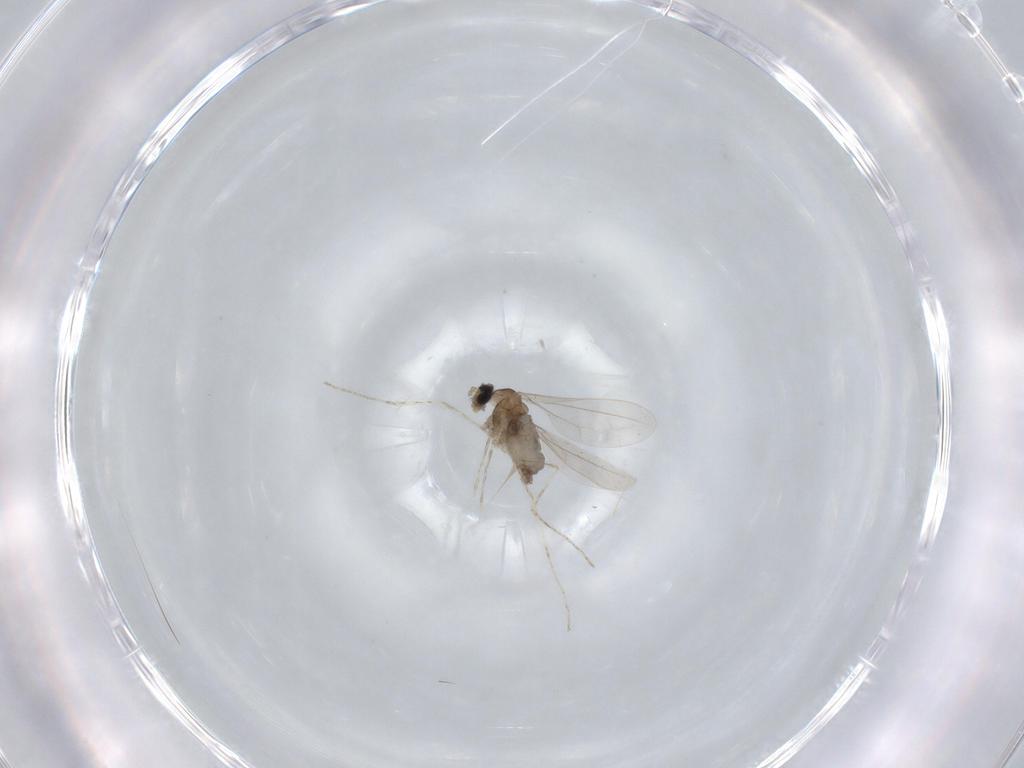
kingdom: Animalia
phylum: Arthropoda
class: Insecta
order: Diptera
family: Cecidomyiidae
